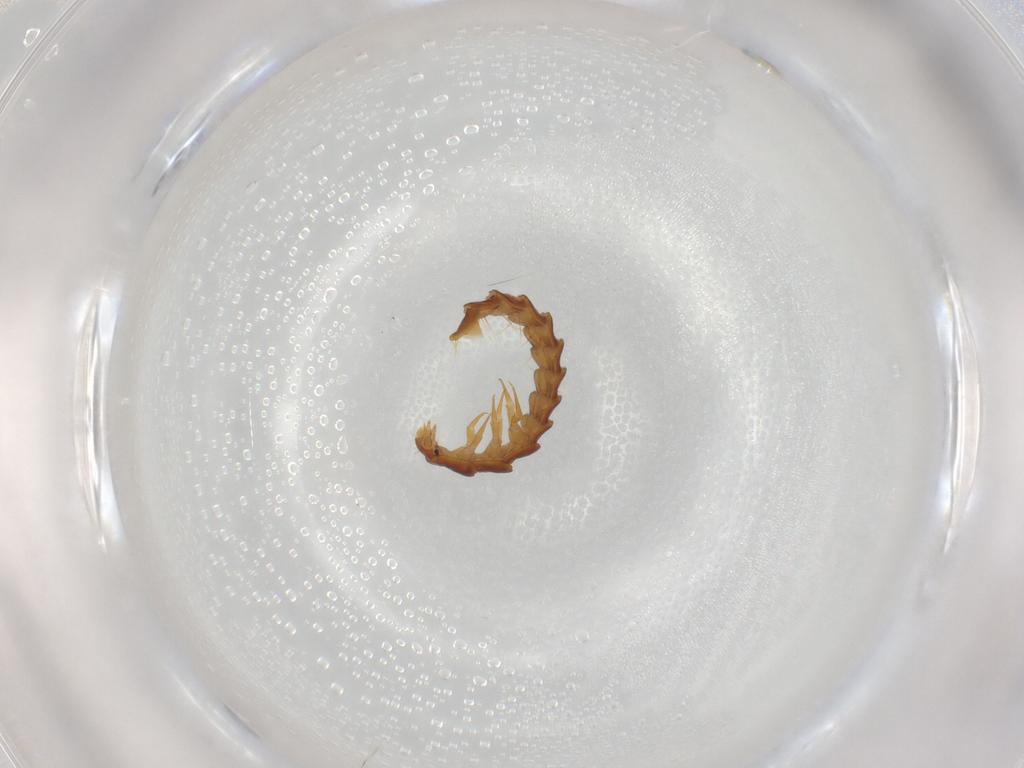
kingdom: Animalia
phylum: Arthropoda
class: Insecta
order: Coleoptera
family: Lycidae
